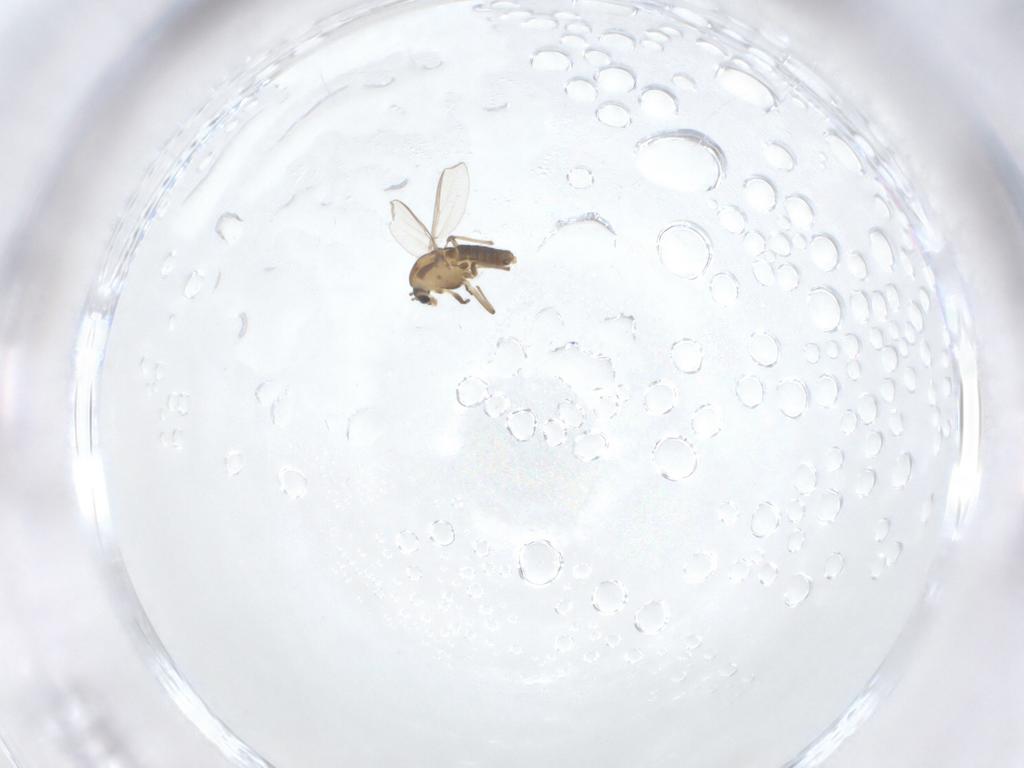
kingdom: Animalia
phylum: Arthropoda
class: Insecta
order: Diptera
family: Chironomidae
